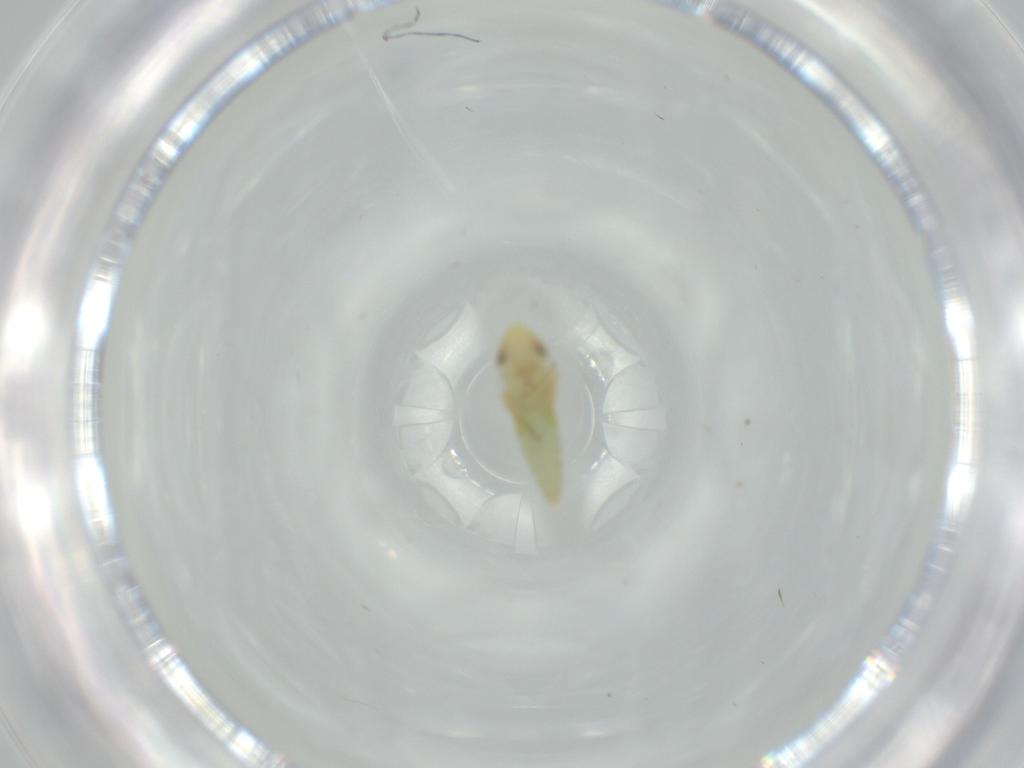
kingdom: Animalia
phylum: Arthropoda
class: Insecta
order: Hemiptera
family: Cicadellidae
